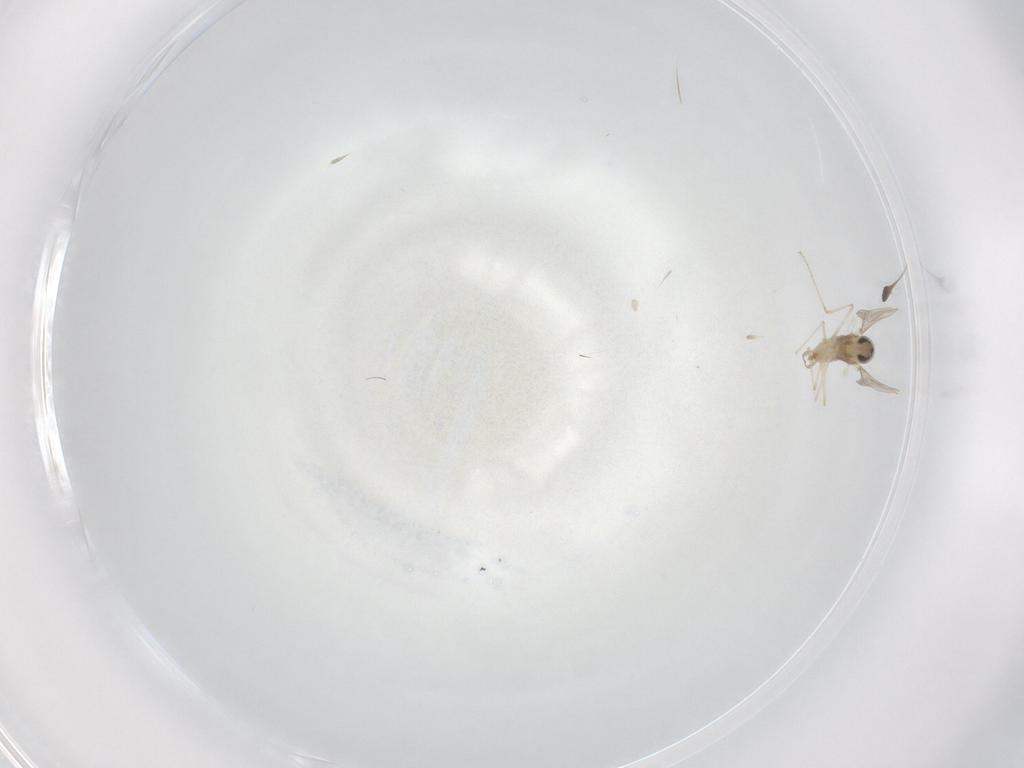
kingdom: Animalia
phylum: Arthropoda
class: Insecta
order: Diptera
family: Cecidomyiidae
